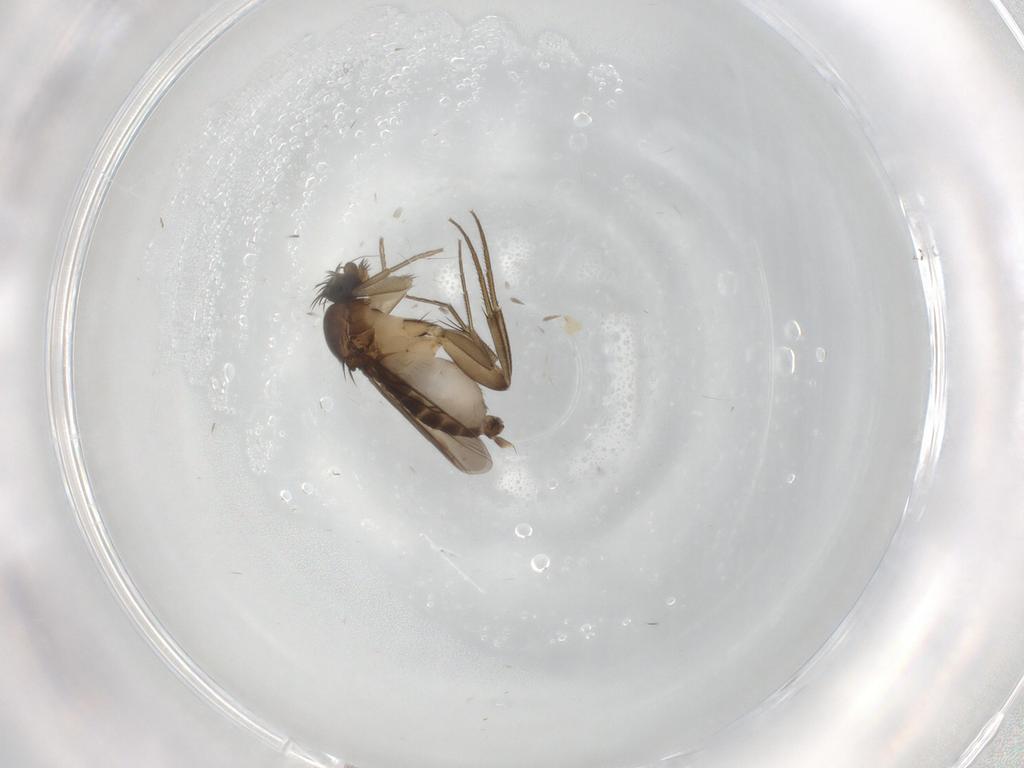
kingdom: Animalia
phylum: Arthropoda
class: Insecta
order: Diptera
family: Phoridae
